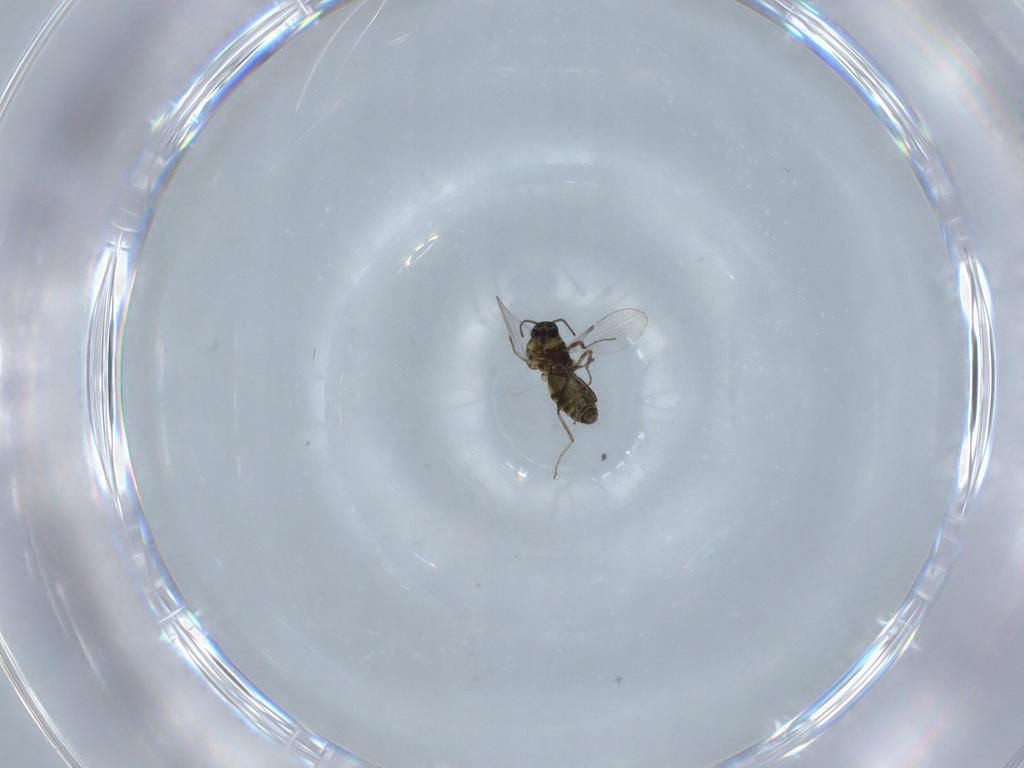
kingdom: Animalia
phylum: Arthropoda
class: Insecta
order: Diptera
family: Ceratopogonidae
